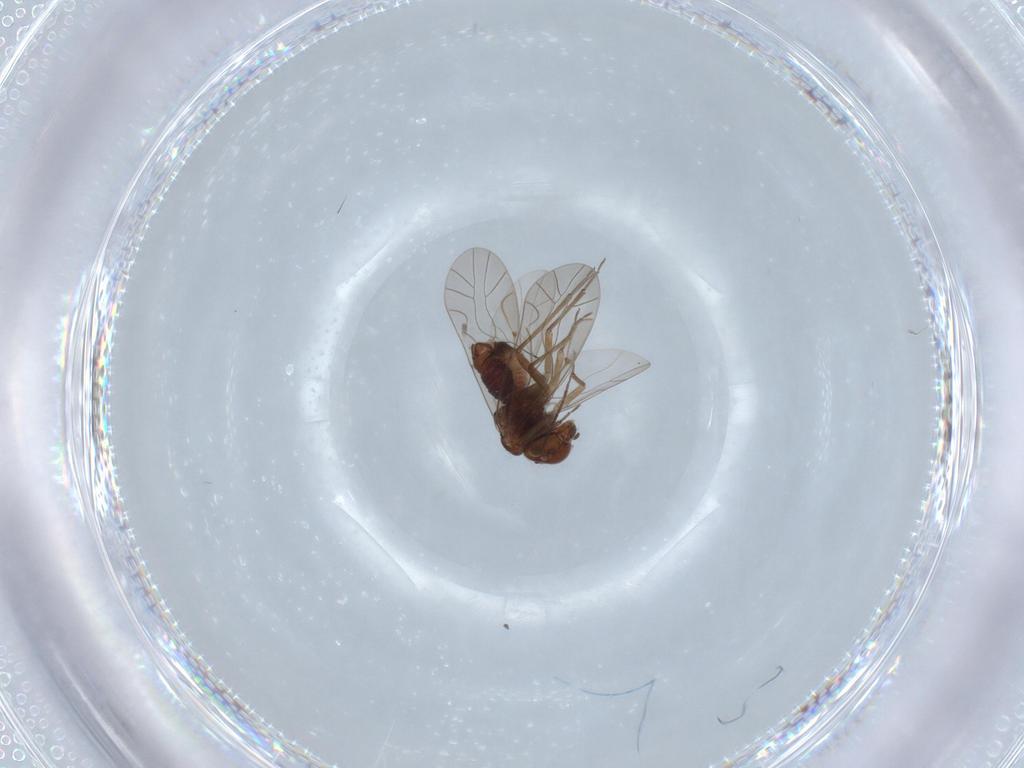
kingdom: Animalia
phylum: Arthropoda
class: Insecta
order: Psocodea
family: Lachesillidae
